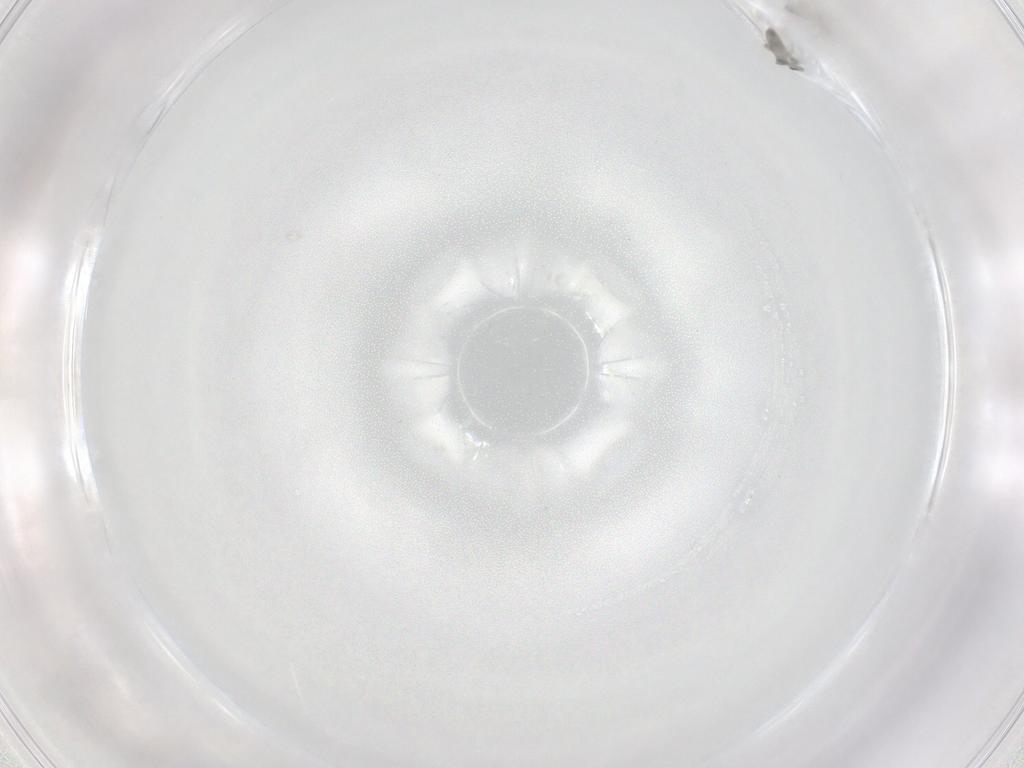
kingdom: Animalia
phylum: Arthropoda
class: Insecta
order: Diptera
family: Cecidomyiidae
